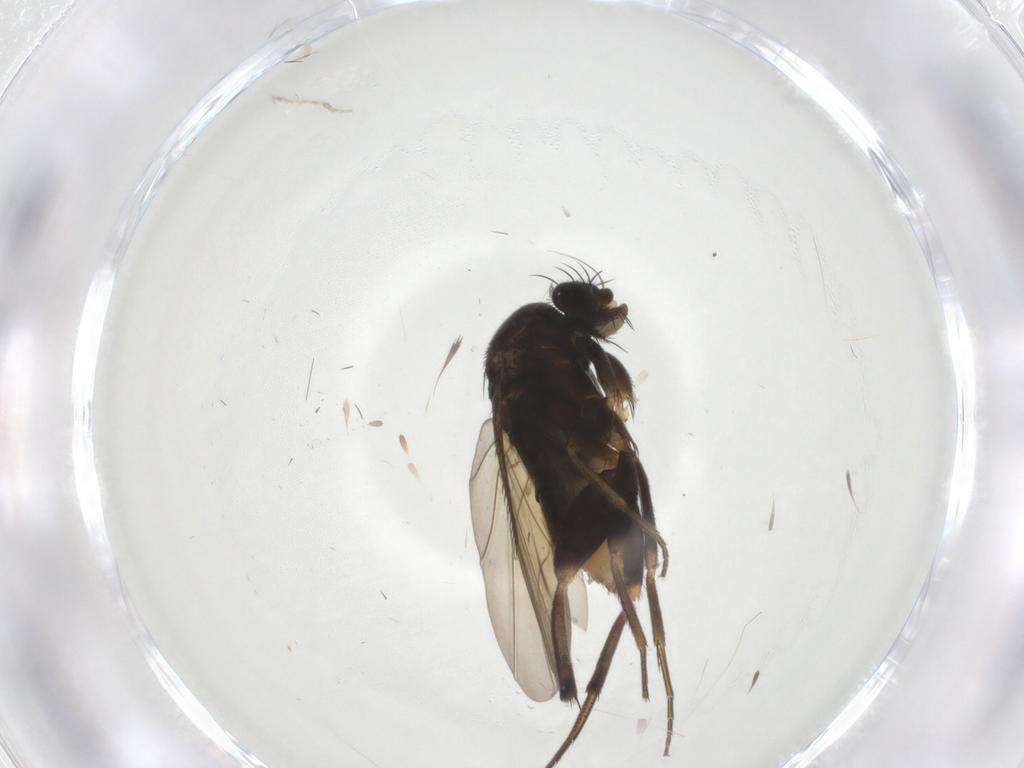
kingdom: Animalia
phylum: Arthropoda
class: Insecta
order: Diptera
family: Phoridae
